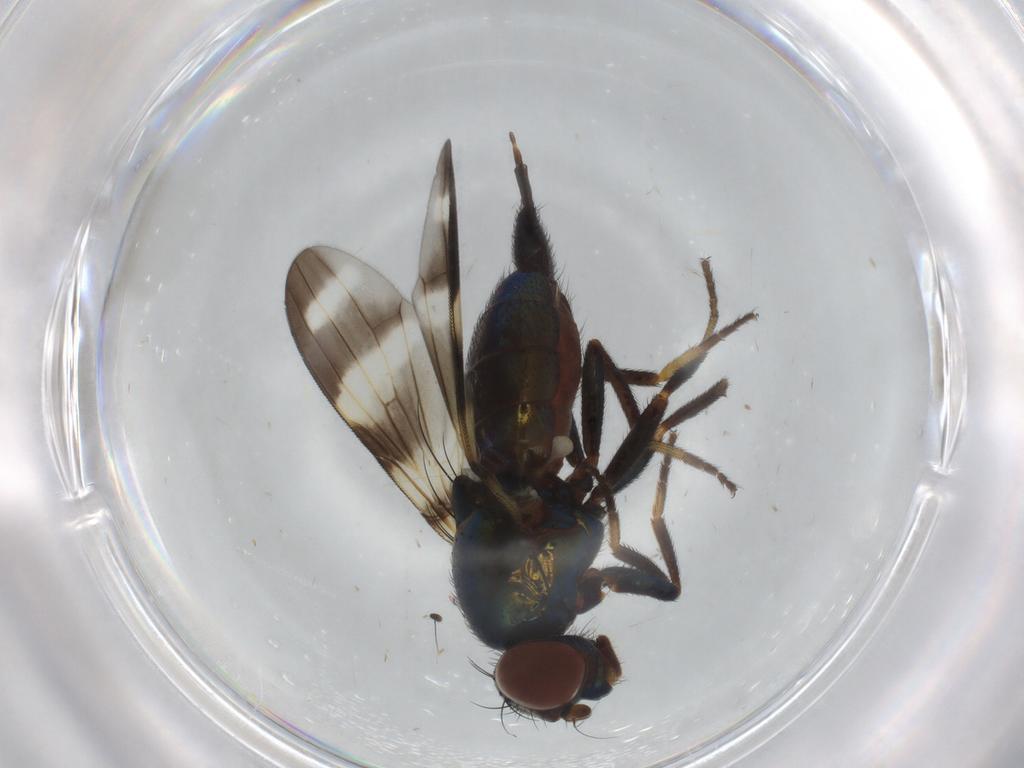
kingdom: Animalia
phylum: Arthropoda
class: Insecta
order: Diptera
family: Ulidiidae
